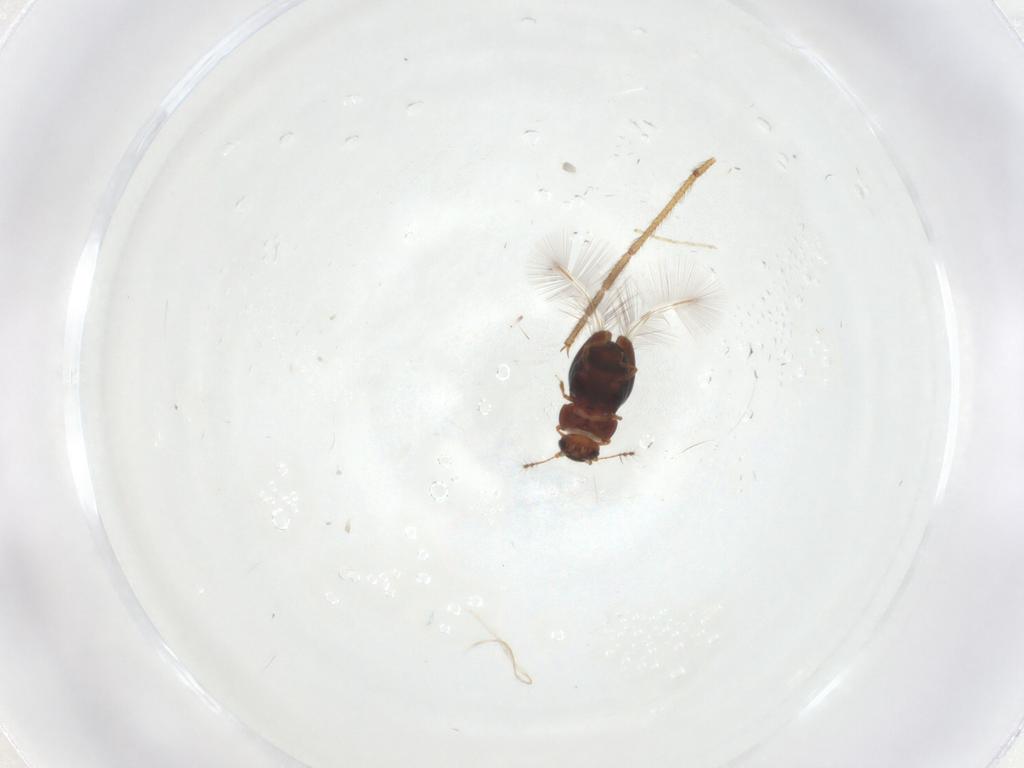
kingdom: Animalia
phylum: Arthropoda
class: Insecta
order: Coleoptera
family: Ptiliidae
